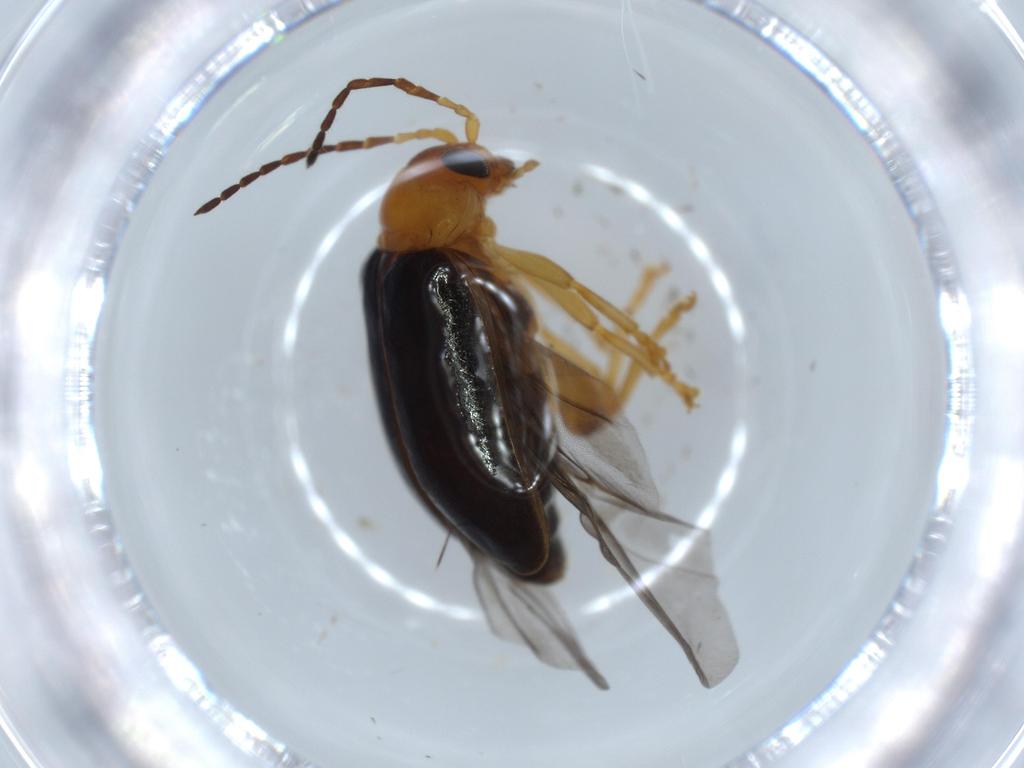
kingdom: Animalia
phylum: Arthropoda
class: Insecta
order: Coleoptera
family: Chrysomelidae
